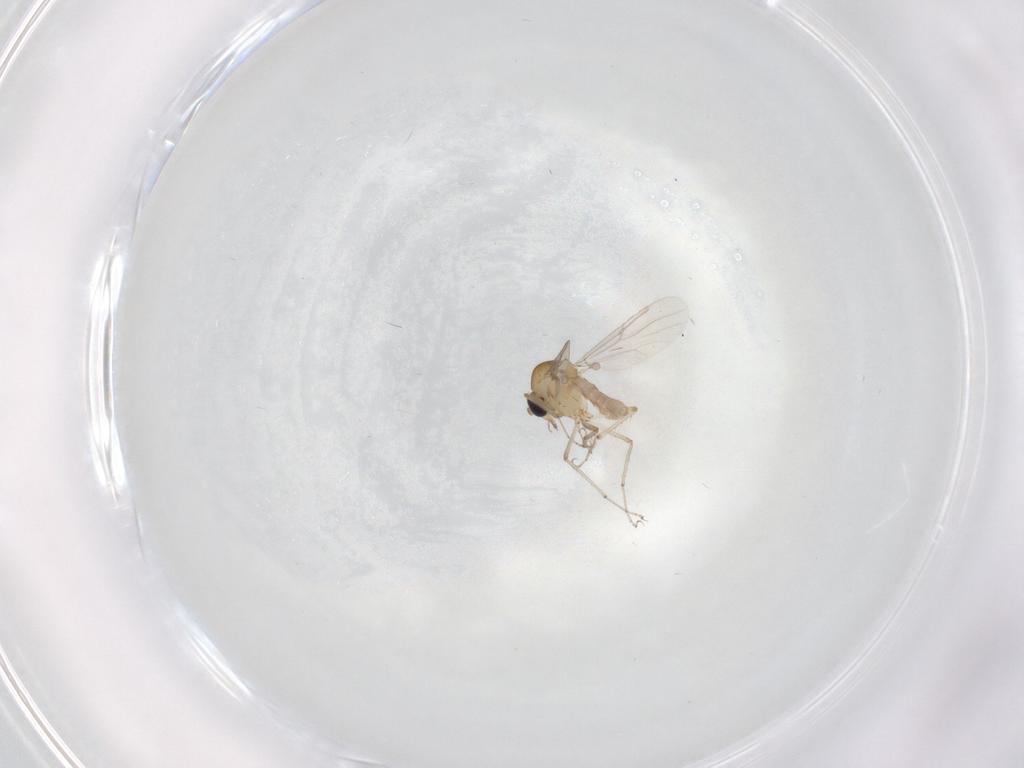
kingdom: Animalia
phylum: Arthropoda
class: Insecta
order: Diptera
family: Ceratopogonidae
